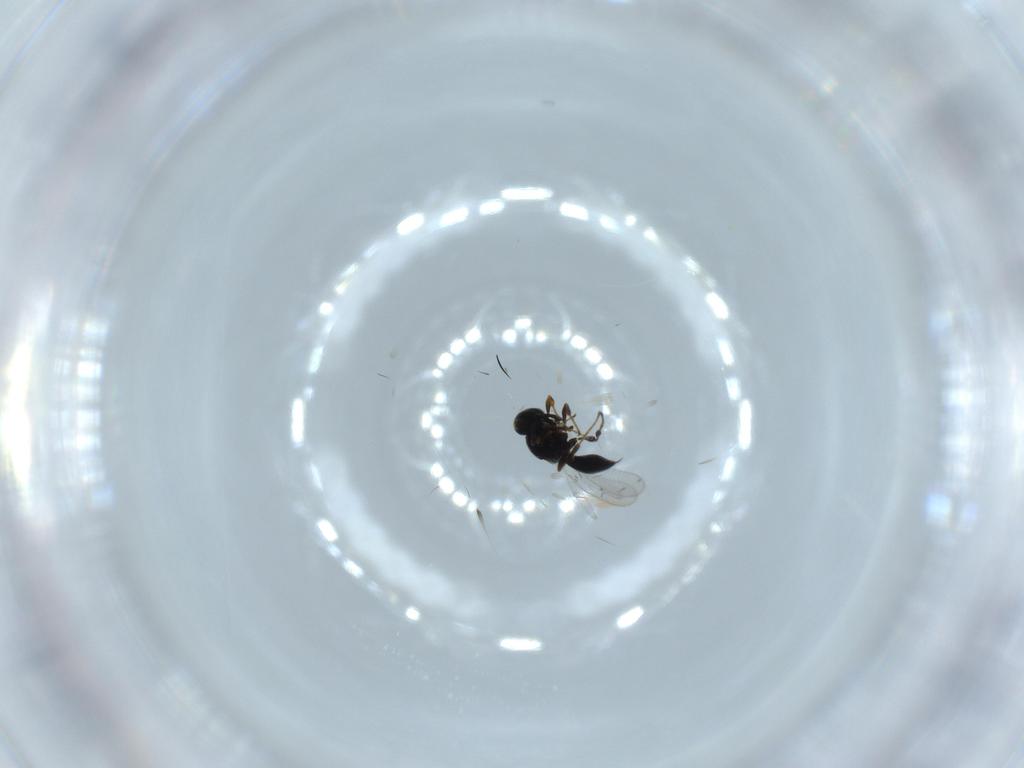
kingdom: Animalia
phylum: Arthropoda
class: Insecta
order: Hymenoptera
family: Platygastridae
